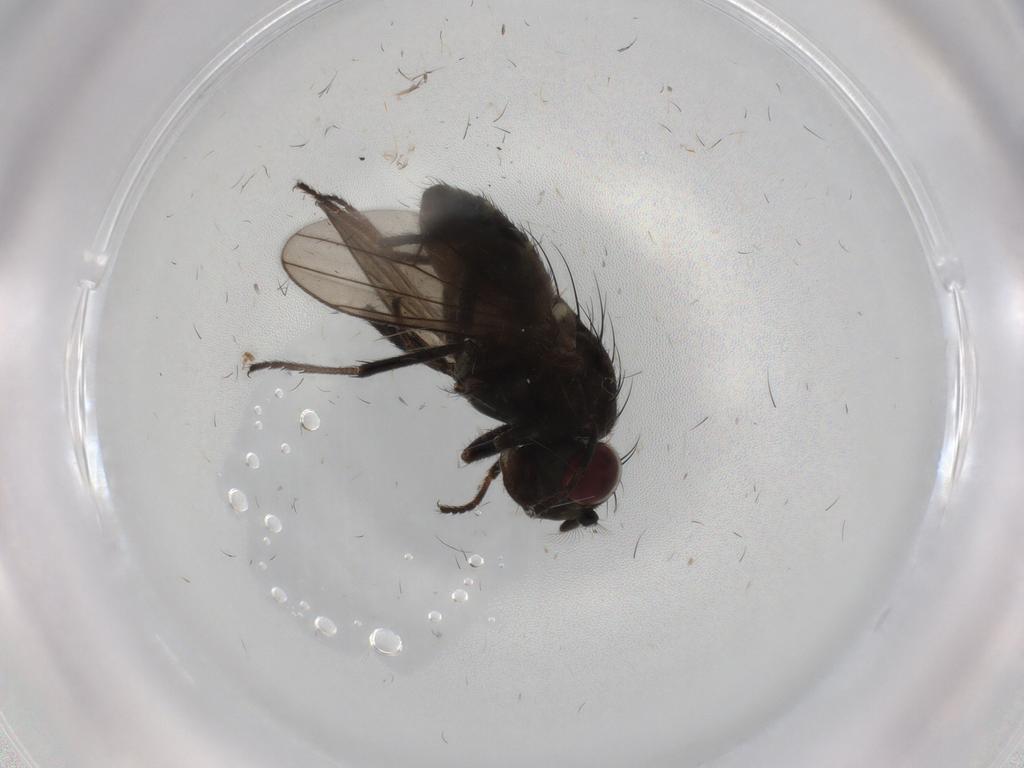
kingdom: Animalia
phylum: Arthropoda
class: Insecta
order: Diptera
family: Ephydridae
